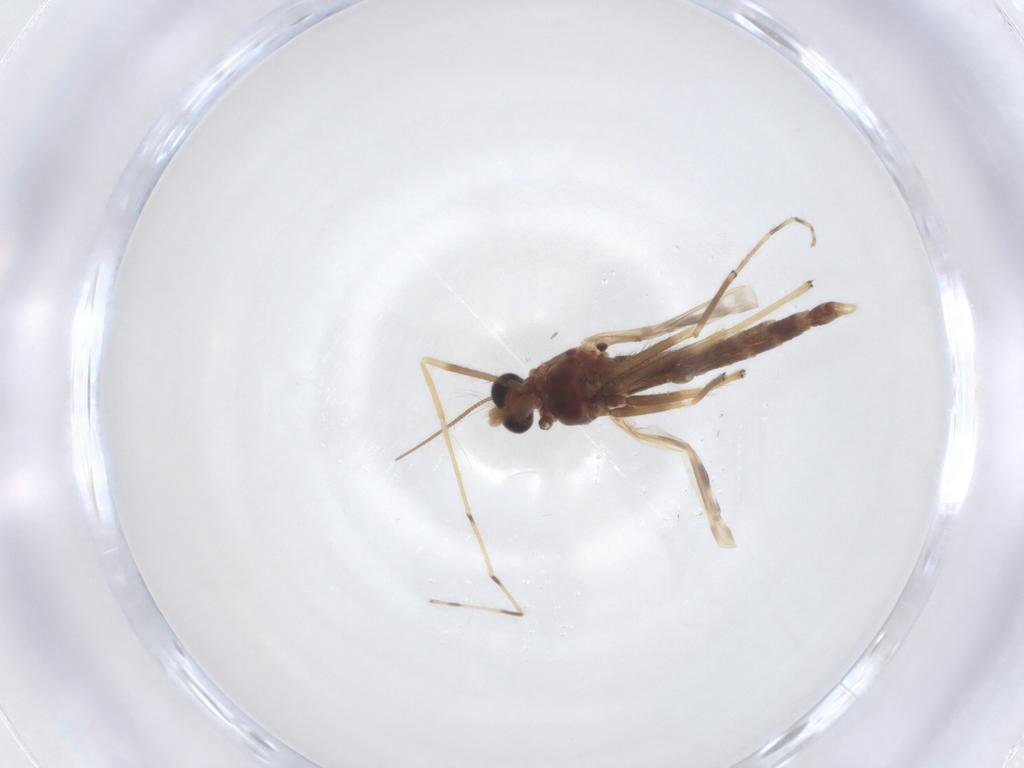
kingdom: Animalia
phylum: Arthropoda
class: Insecta
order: Diptera
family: Chironomidae
